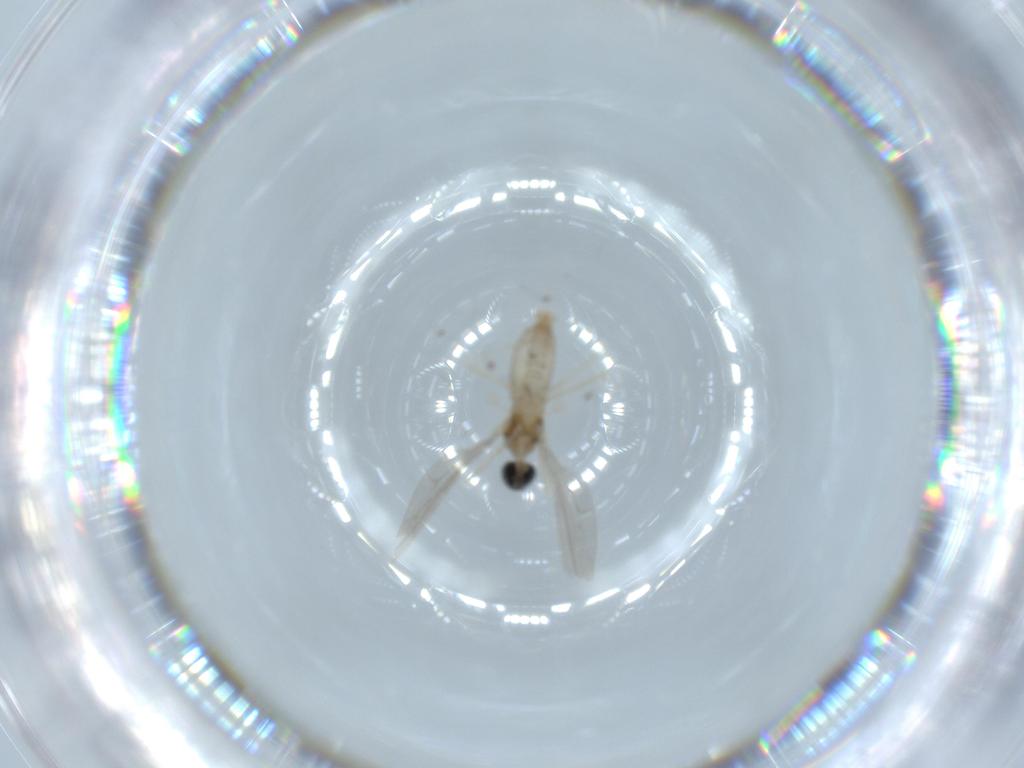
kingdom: Animalia
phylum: Arthropoda
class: Insecta
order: Diptera
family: Cecidomyiidae
